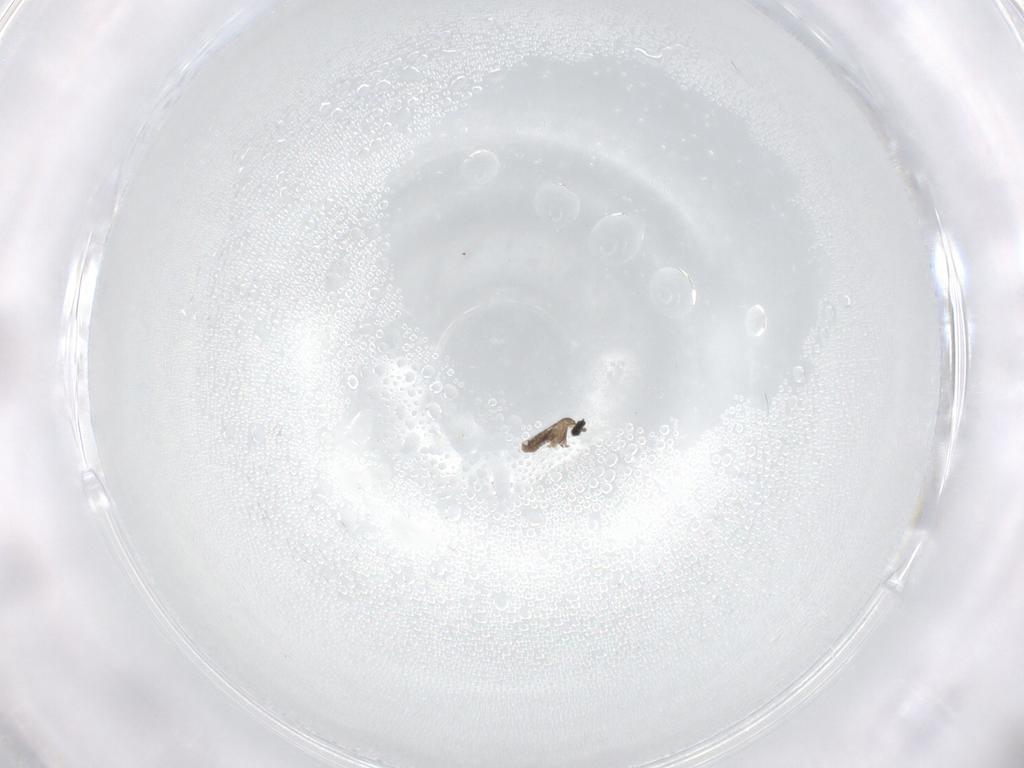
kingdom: Animalia
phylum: Arthropoda
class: Insecta
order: Diptera
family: Cecidomyiidae
